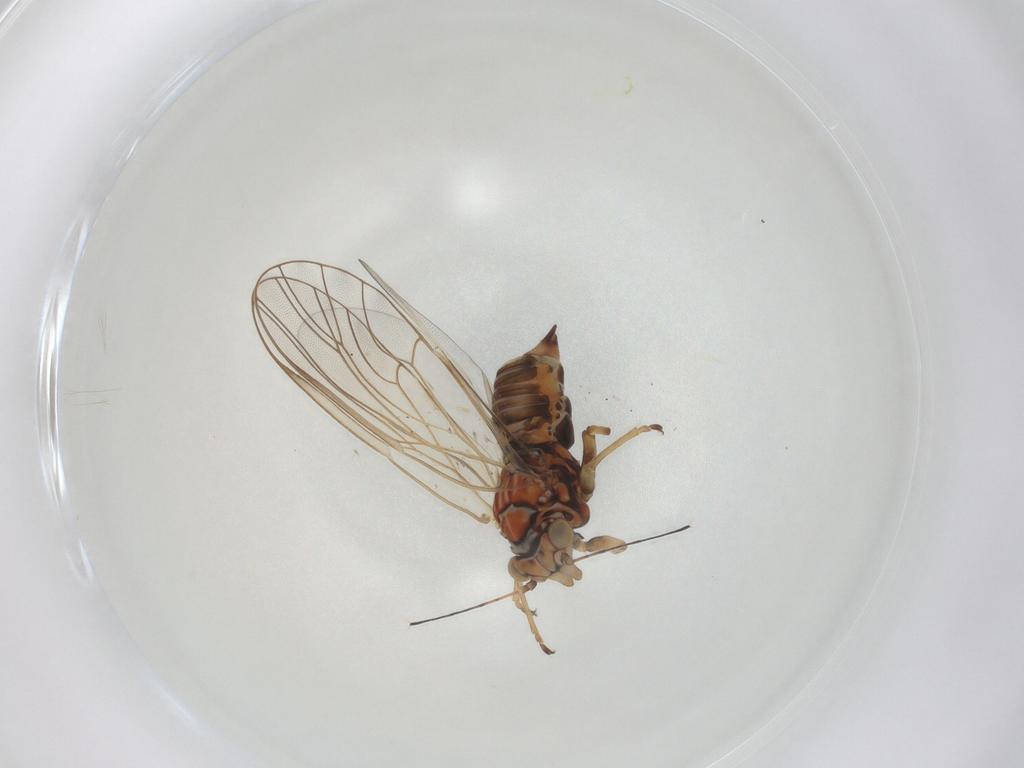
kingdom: Animalia
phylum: Arthropoda
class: Insecta
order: Hemiptera
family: Psyllidae
